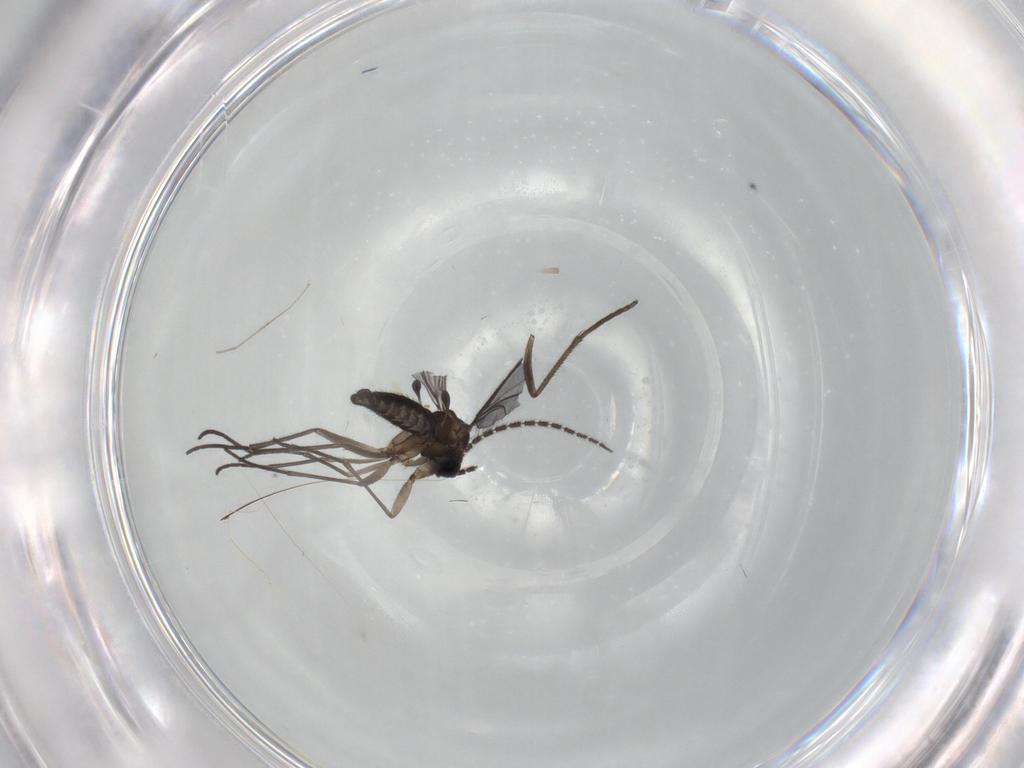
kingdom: Animalia
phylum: Arthropoda
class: Insecta
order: Diptera
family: Sciaridae
